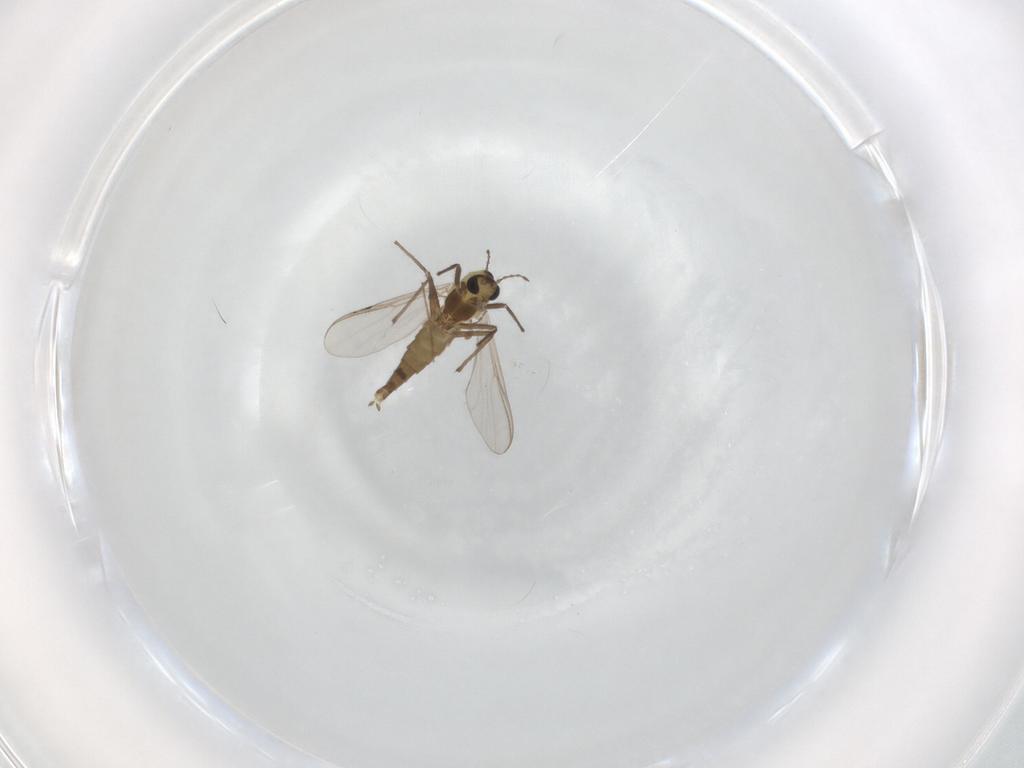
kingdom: Animalia
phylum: Arthropoda
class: Insecta
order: Diptera
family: Chironomidae
